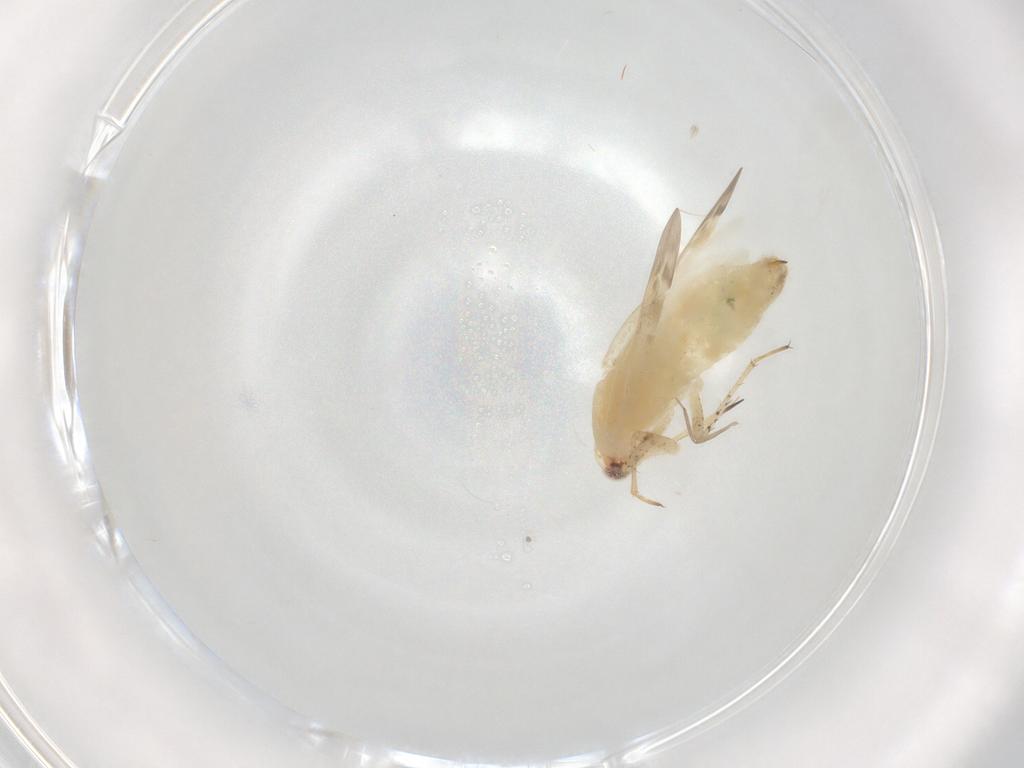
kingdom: Animalia
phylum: Arthropoda
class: Insecta
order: Hemiptera
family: Miridae
